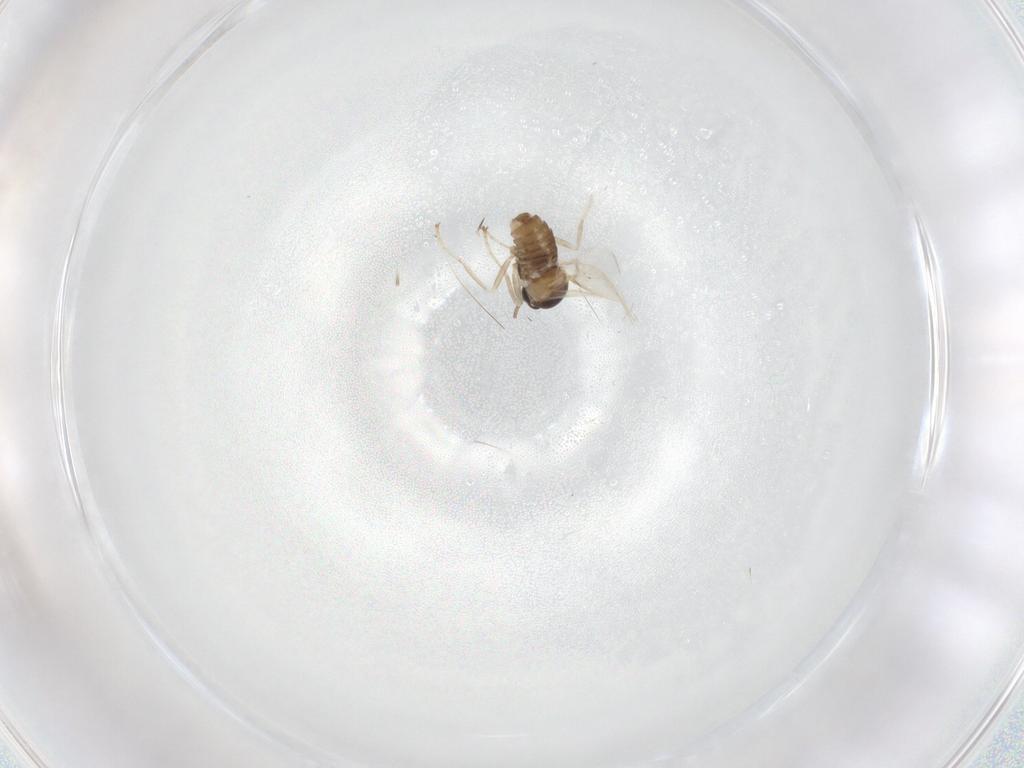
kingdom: Animalia
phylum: Arthropoda
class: Insecta
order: Diptera
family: Cecidomyiidae
